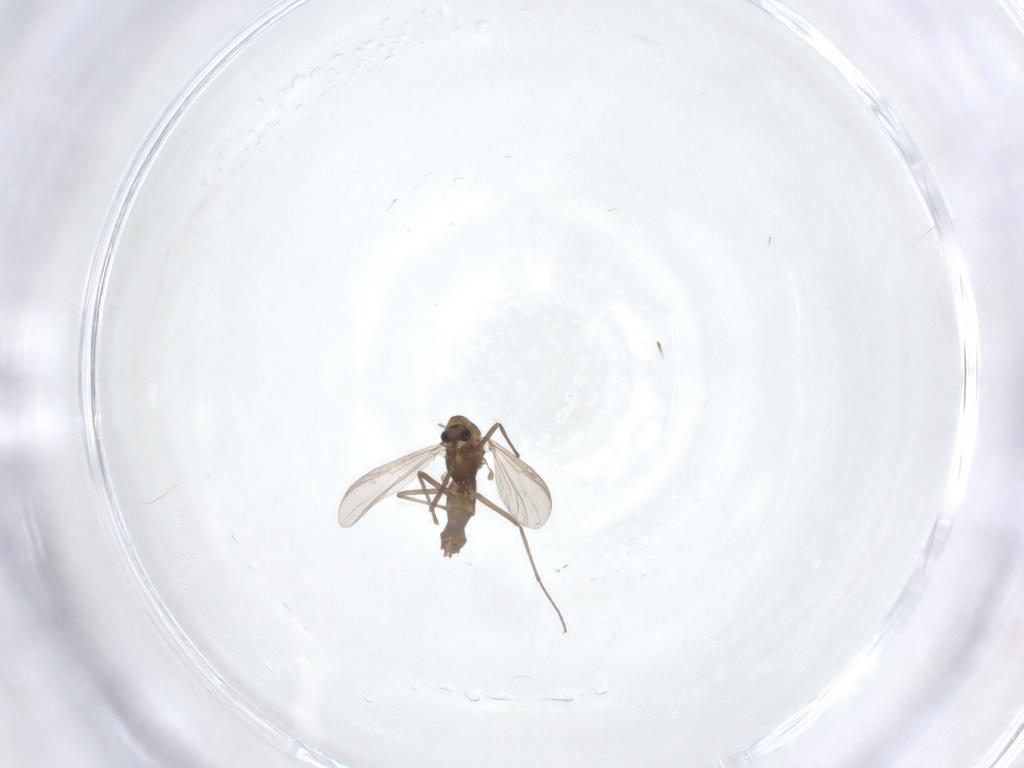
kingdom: Animalia
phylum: Arthropoda
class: Insecta
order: Diptera
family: Chironomidae
